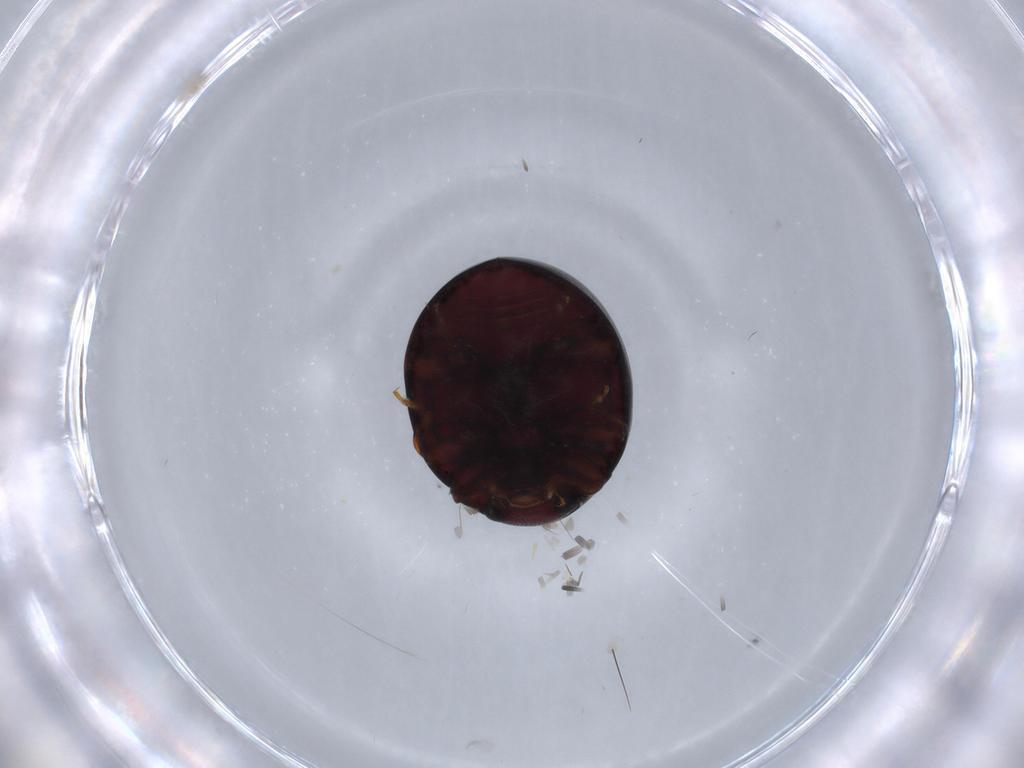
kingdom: Animalia
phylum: Arthropoda
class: Insecta
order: Coleoptera
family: Coccinellidae
